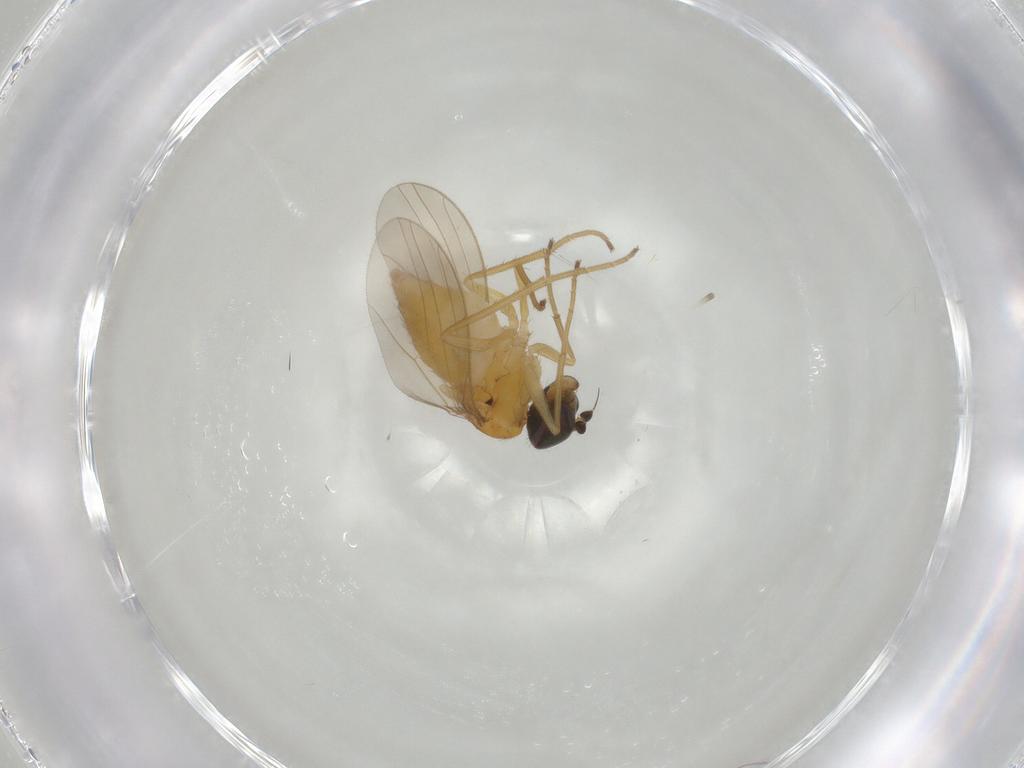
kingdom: Animalia
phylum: Arthropoda
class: Insecta
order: Diptera
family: Dolichopodidae
